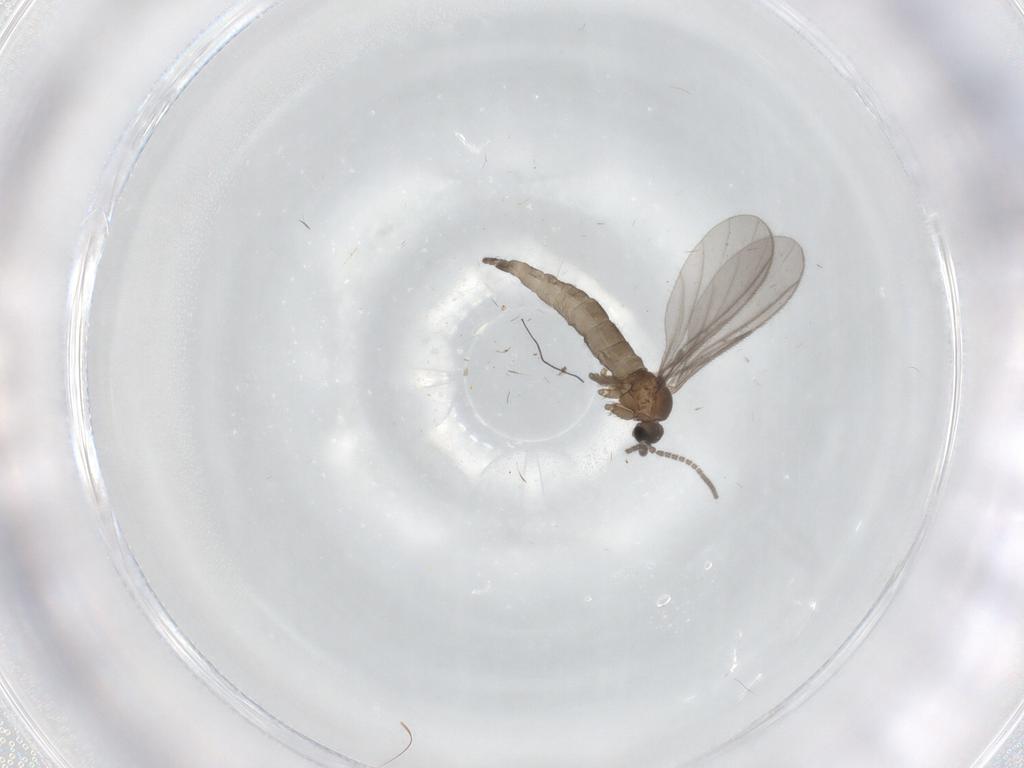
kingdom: Animalia
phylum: Arthropoda
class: Insecta
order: Diptera
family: Sciaridae
